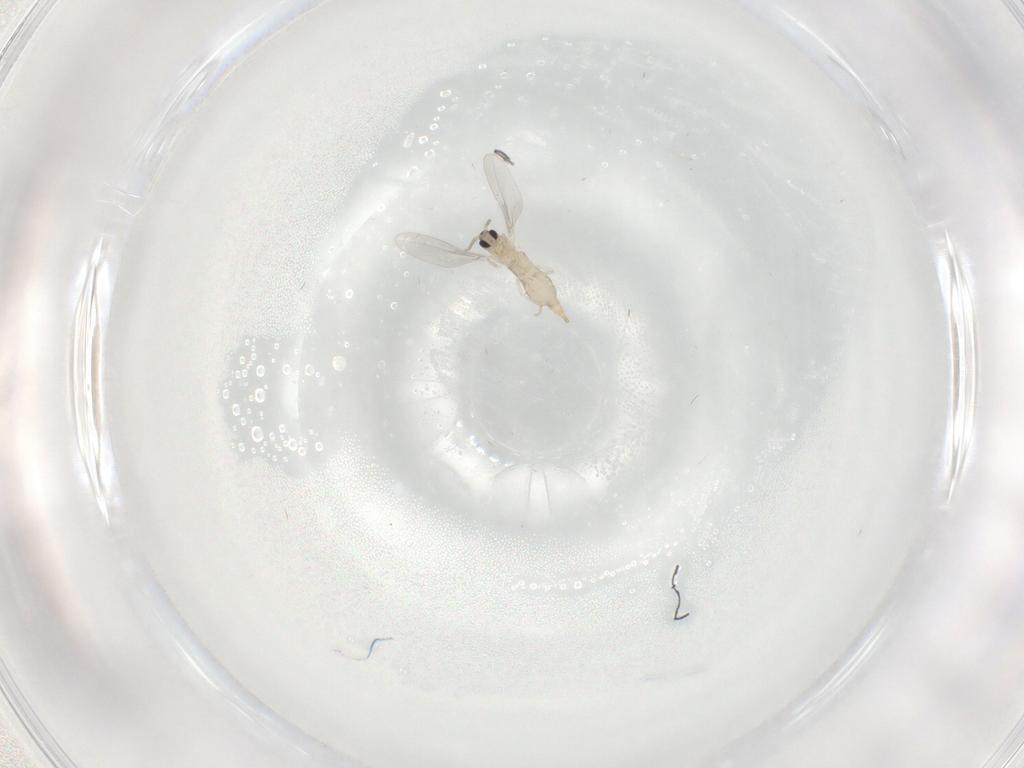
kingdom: Animalia
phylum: Arthropoda
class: Insecta
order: Diptera
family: Cecidomyiidae
